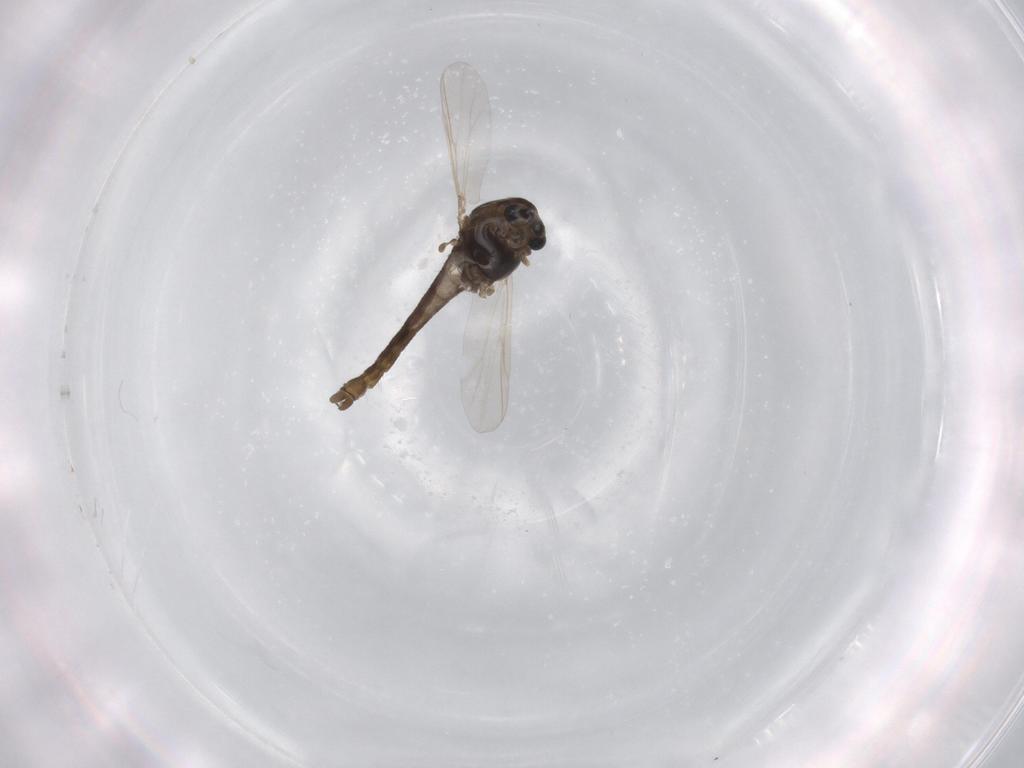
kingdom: Animalia
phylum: Arthropoda
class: Insecta
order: Diptera
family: Chironomidae
